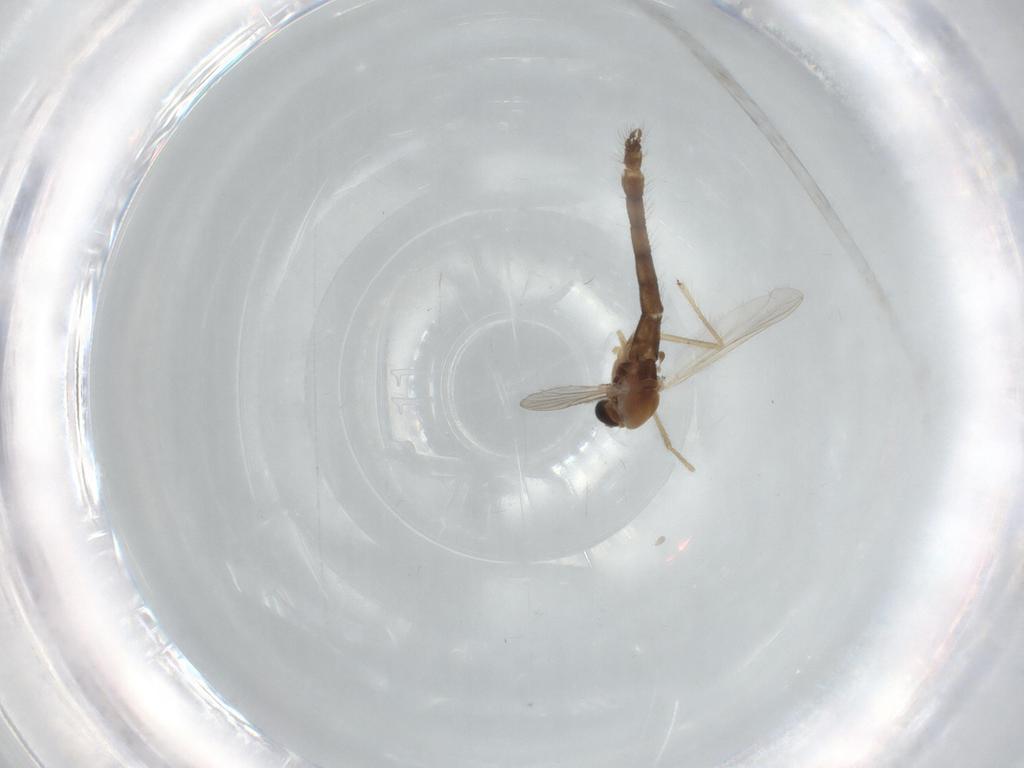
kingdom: Animalia
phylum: Arthropoda
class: Insecta
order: Diptera
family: Limoniidae
